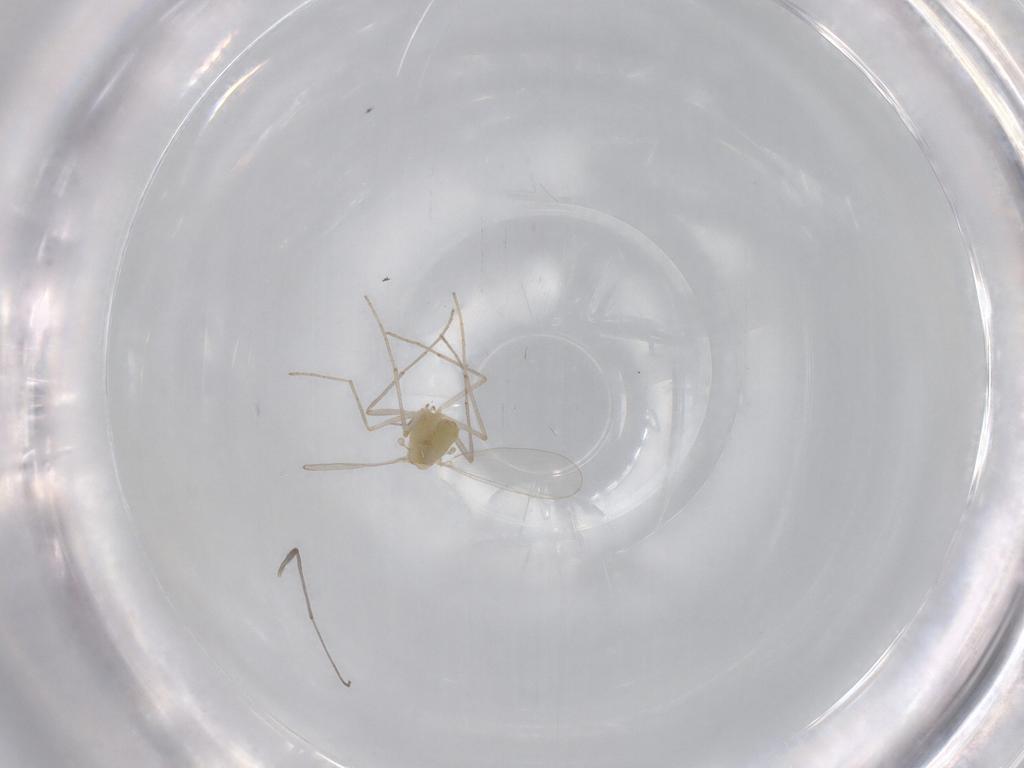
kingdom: Animalia
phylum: Arthropoda
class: Insecta
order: Diptera
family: Chironomidae
